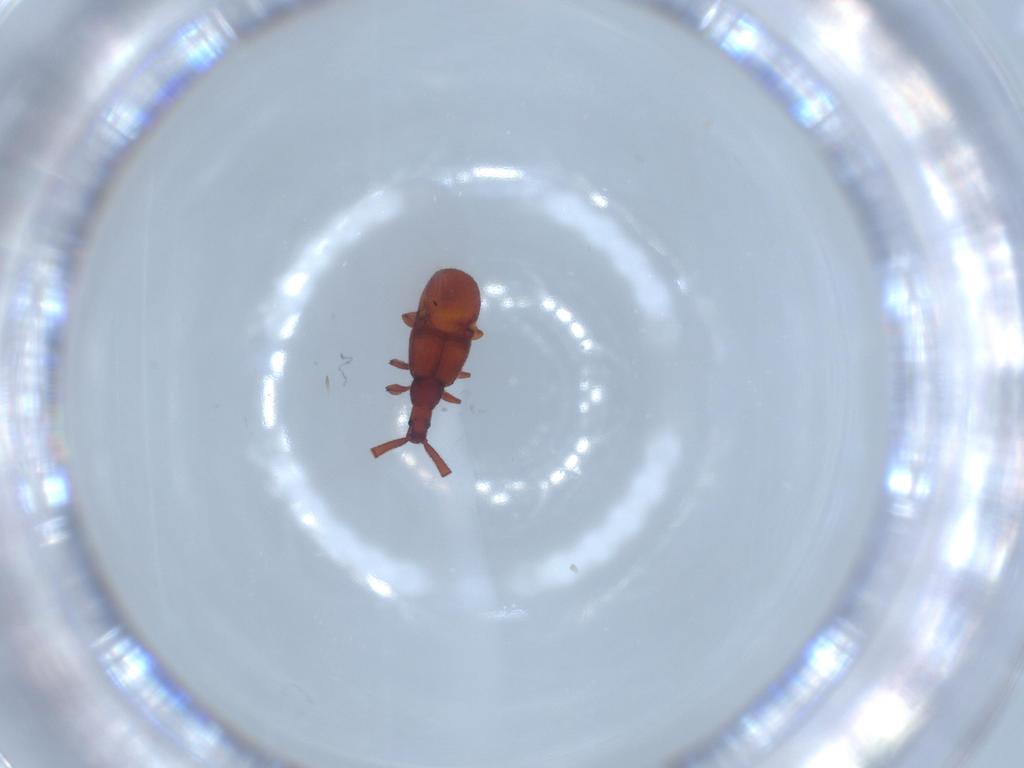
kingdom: Animalia
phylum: Arthropoda
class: Insecta
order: Coleoptera
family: Staphylinidae
